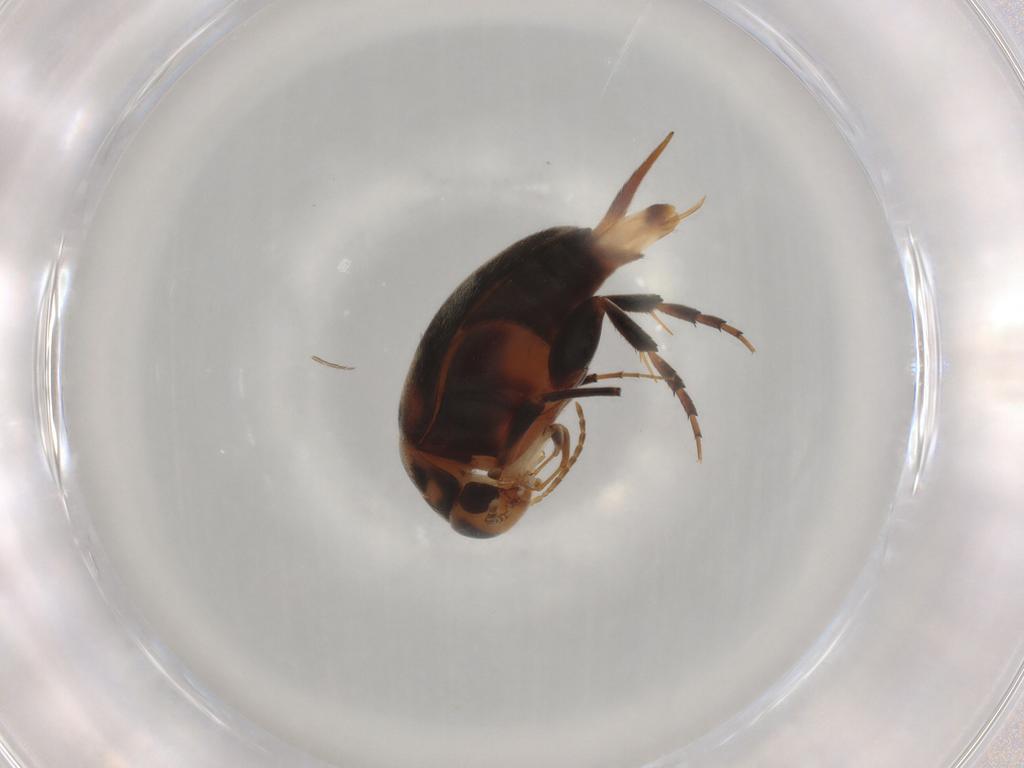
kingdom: Animalia
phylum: Arthropoda
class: Insecta
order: Coleoptera
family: Mordellidae
